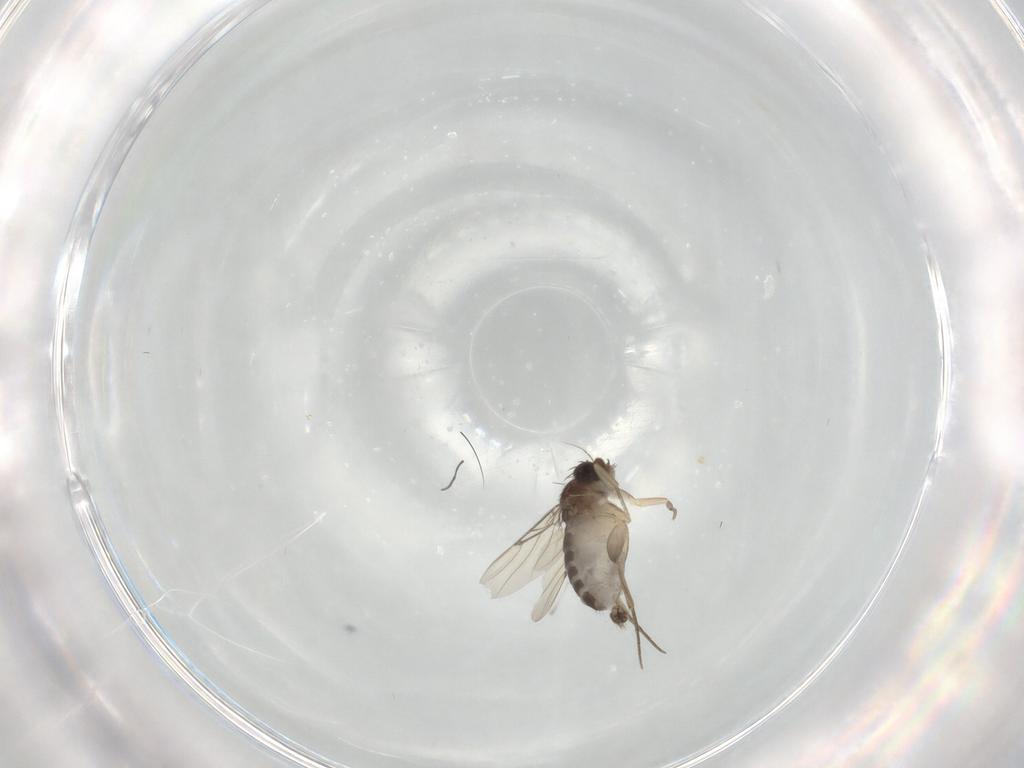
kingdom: Animalia
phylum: Arthropoda
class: Insecta
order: Diptera
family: Phoridae
